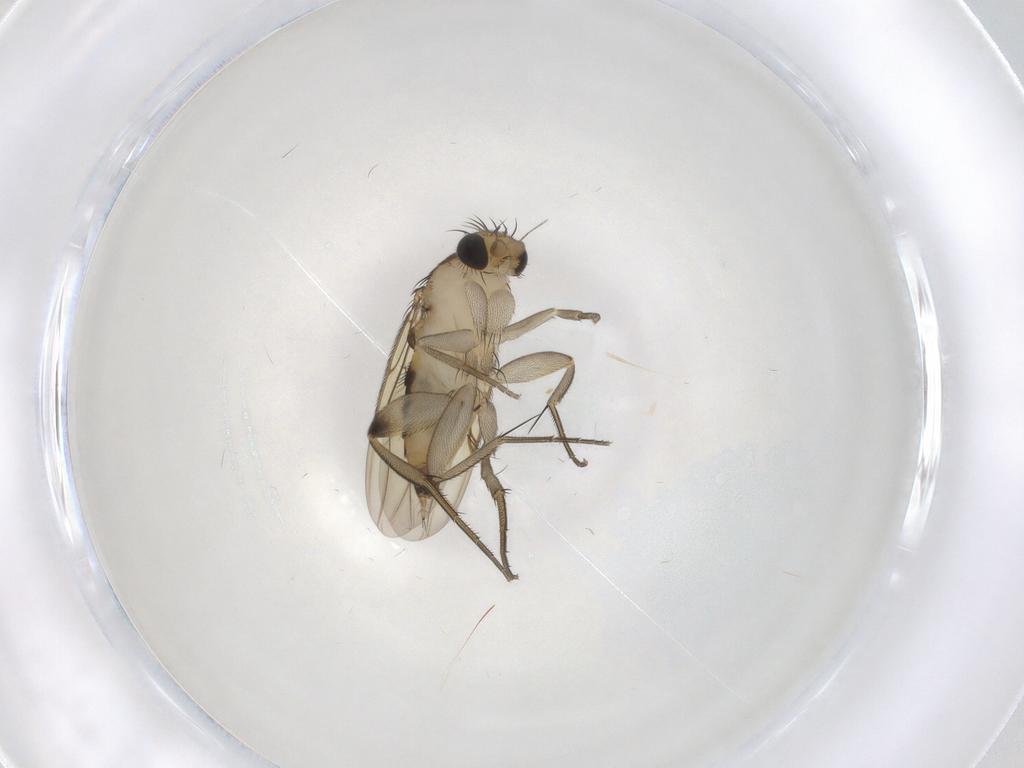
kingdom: Animalia
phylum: Arthropoda
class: Insecta
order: Diptera
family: Phoridae
